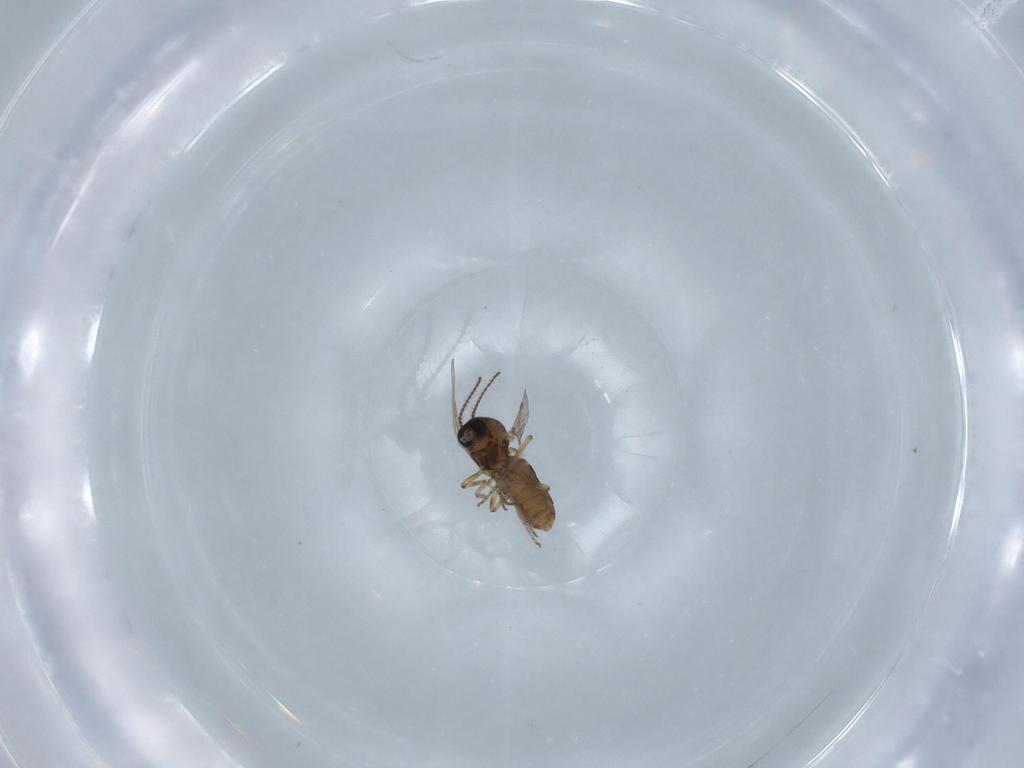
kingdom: Animalia
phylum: Arthropoda
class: Insecta
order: Diptera
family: Ceratopogonidae
